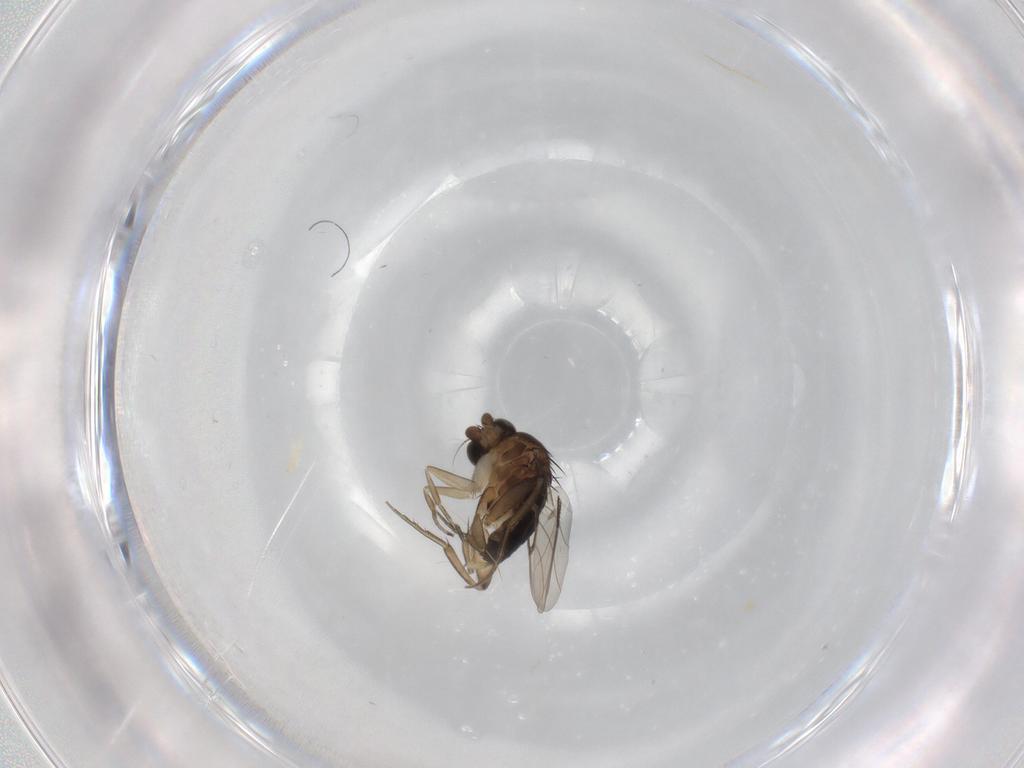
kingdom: Animalia
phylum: Arthropoda
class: Insecta
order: Diptera
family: Phoridae
